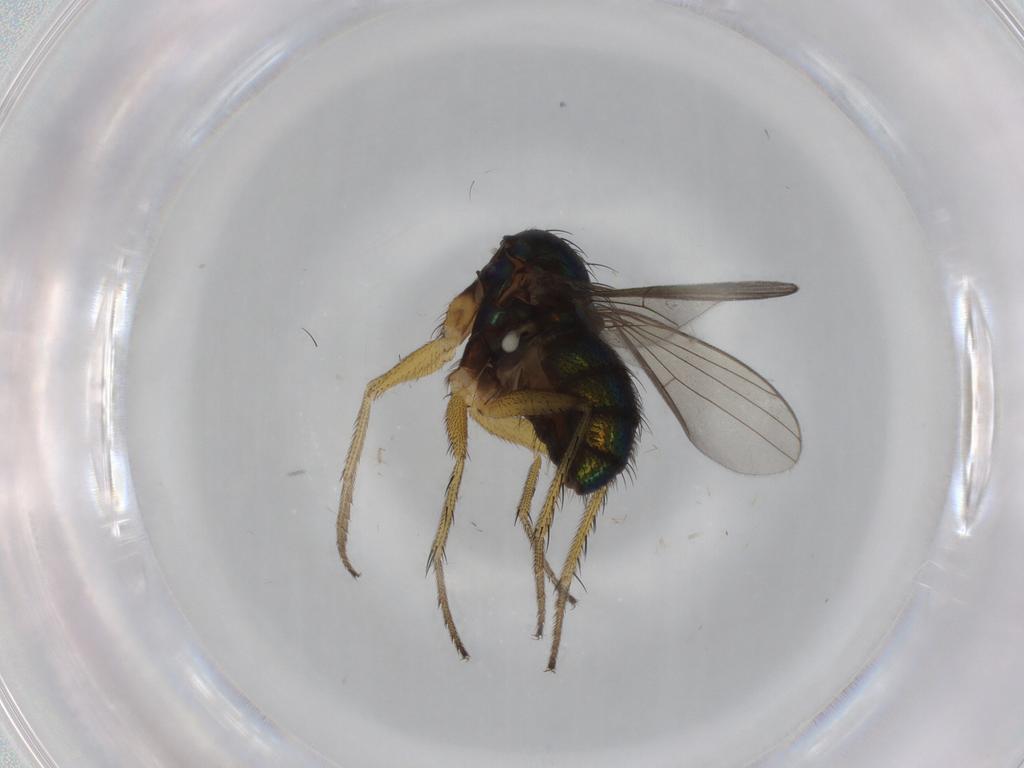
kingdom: Animalia
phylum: Arthropoda
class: Insecta
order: Diptera
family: Dolichopodidae
